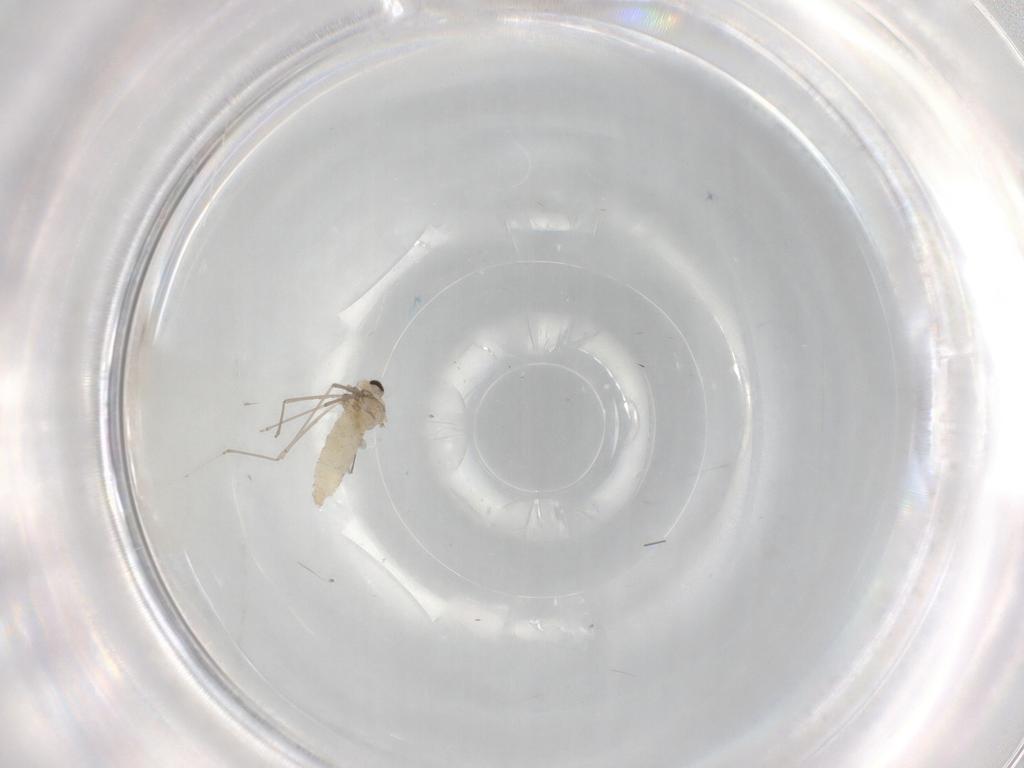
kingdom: Animalia
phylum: Arthropoda
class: Insecta
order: Diptera
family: Cecidomyiidae
